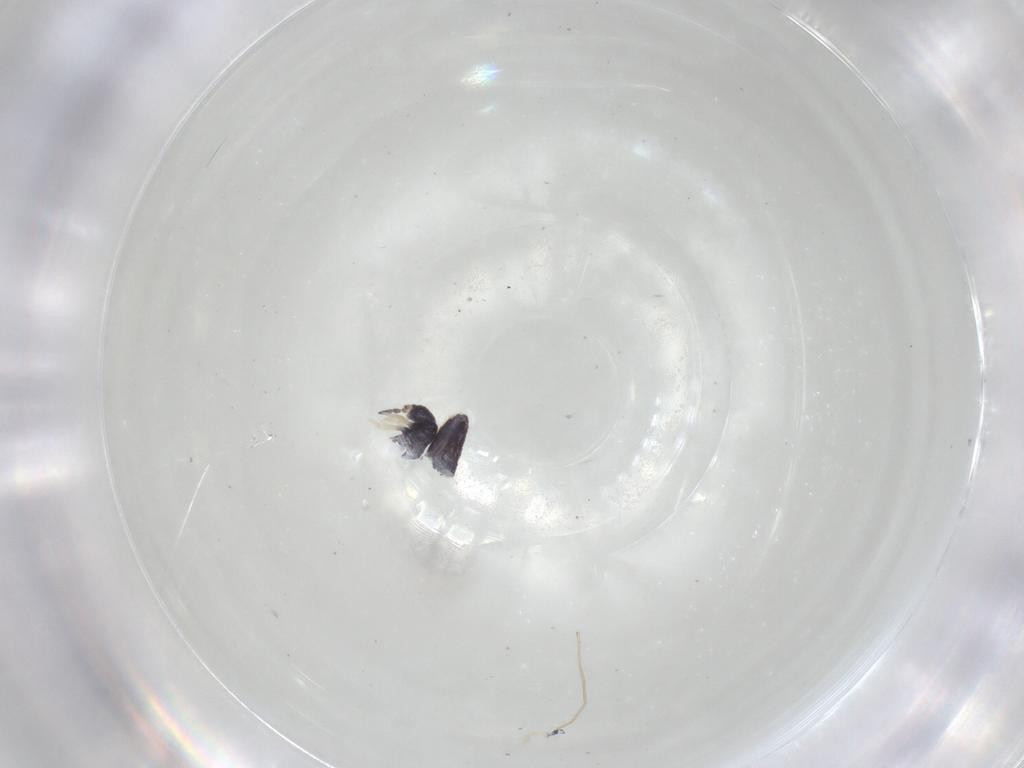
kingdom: Animalia
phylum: Arthropoda
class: Collembola
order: Entomobryomorpha
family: Entomobryidae
